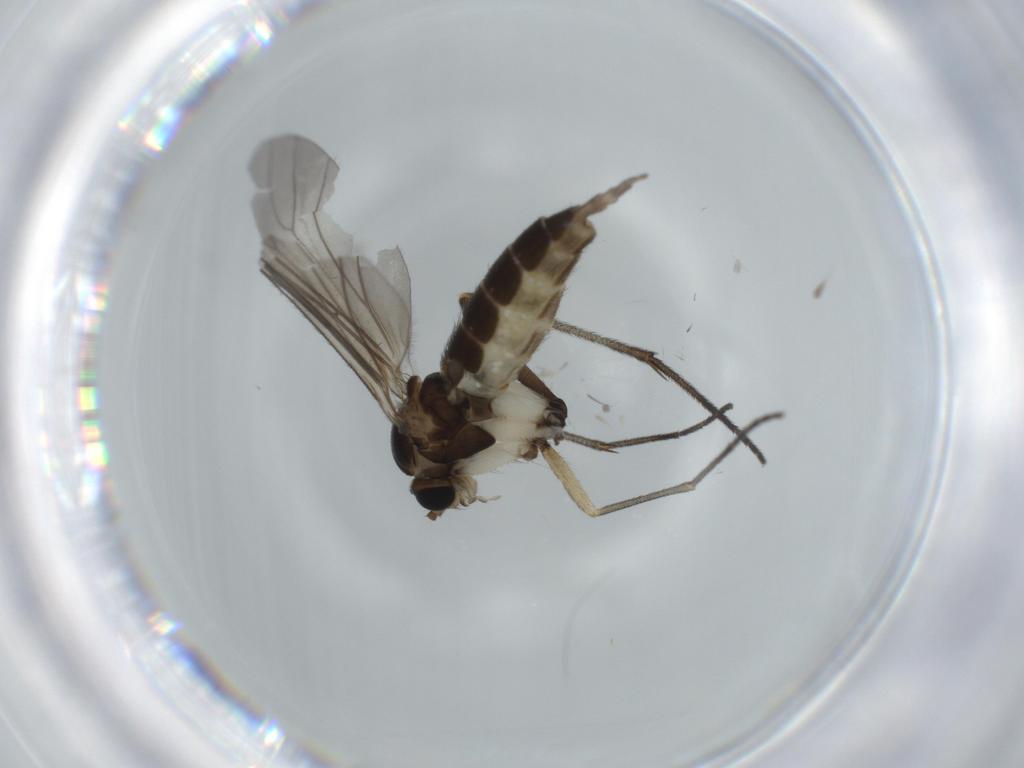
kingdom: Animalia
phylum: Arthropoda
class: Insecta
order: Diptera
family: Sciaridae
